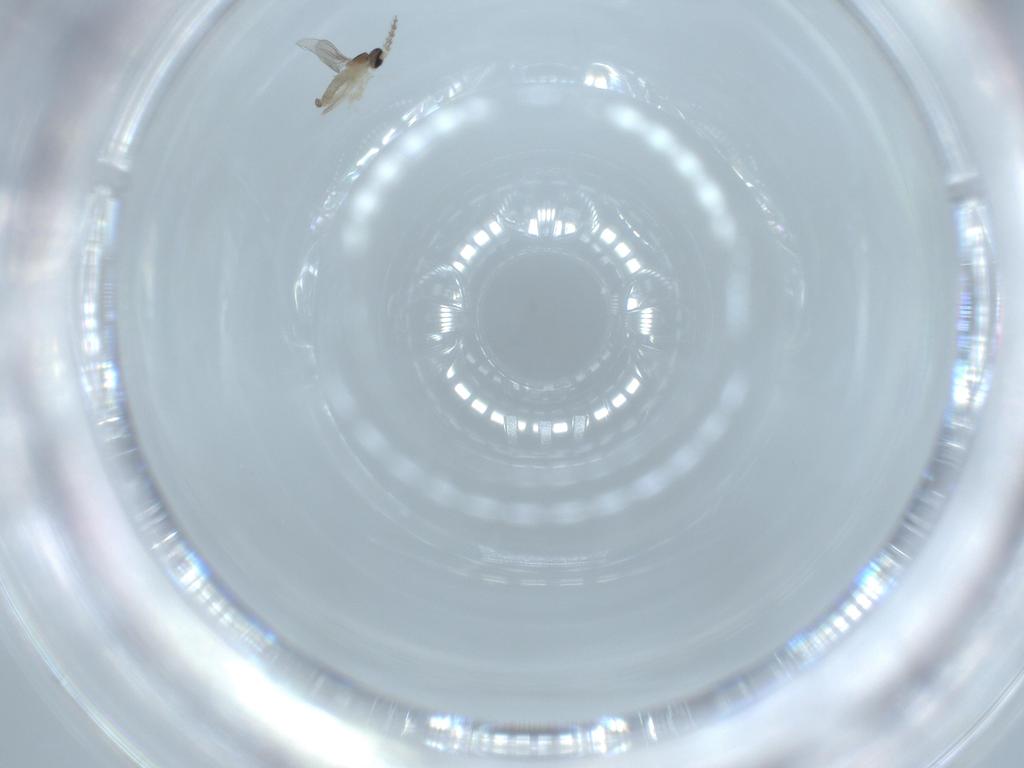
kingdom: Animalia
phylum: Arthropoda
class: Insecta
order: Diptera
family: Cecidomyiidae
